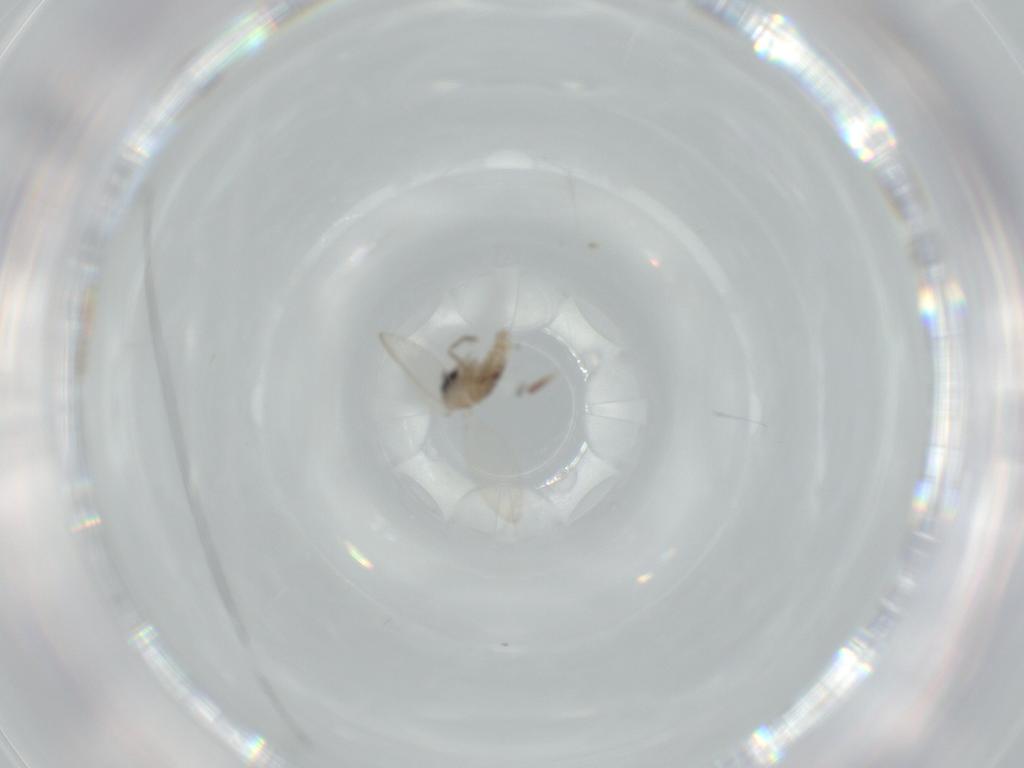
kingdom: Animalia
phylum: Arthropoda
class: Insecta
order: Diptera
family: Psychodidae
